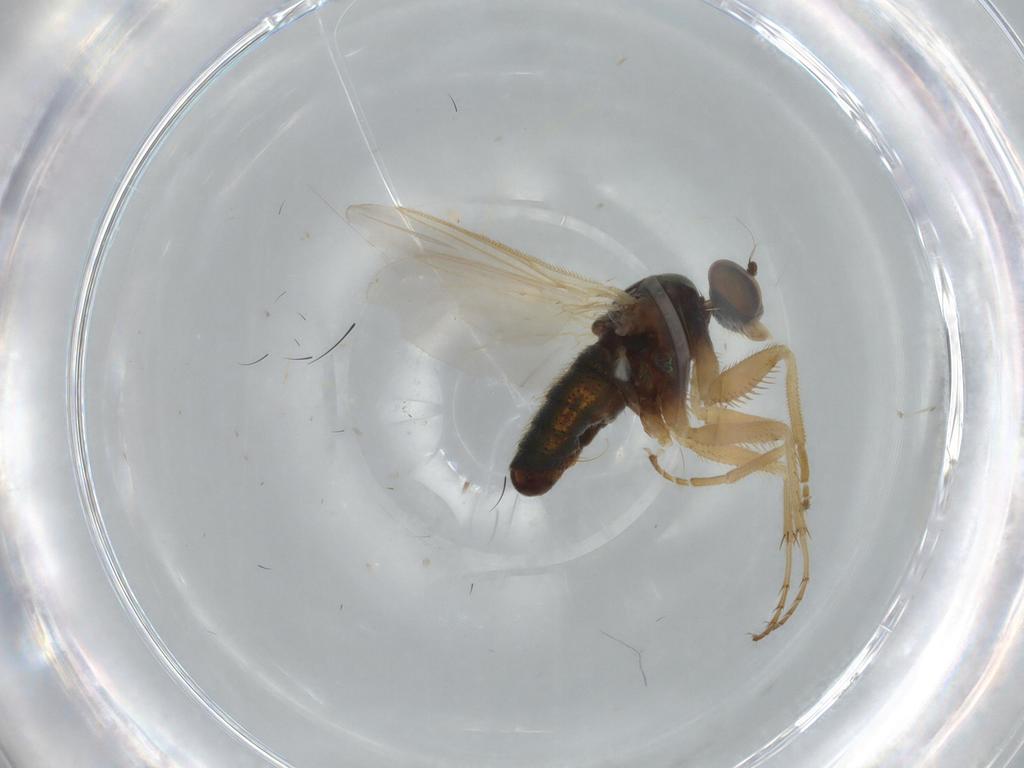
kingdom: Animalia
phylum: Arthropoda
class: Insecta
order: Diptera
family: Dolichopodidae
